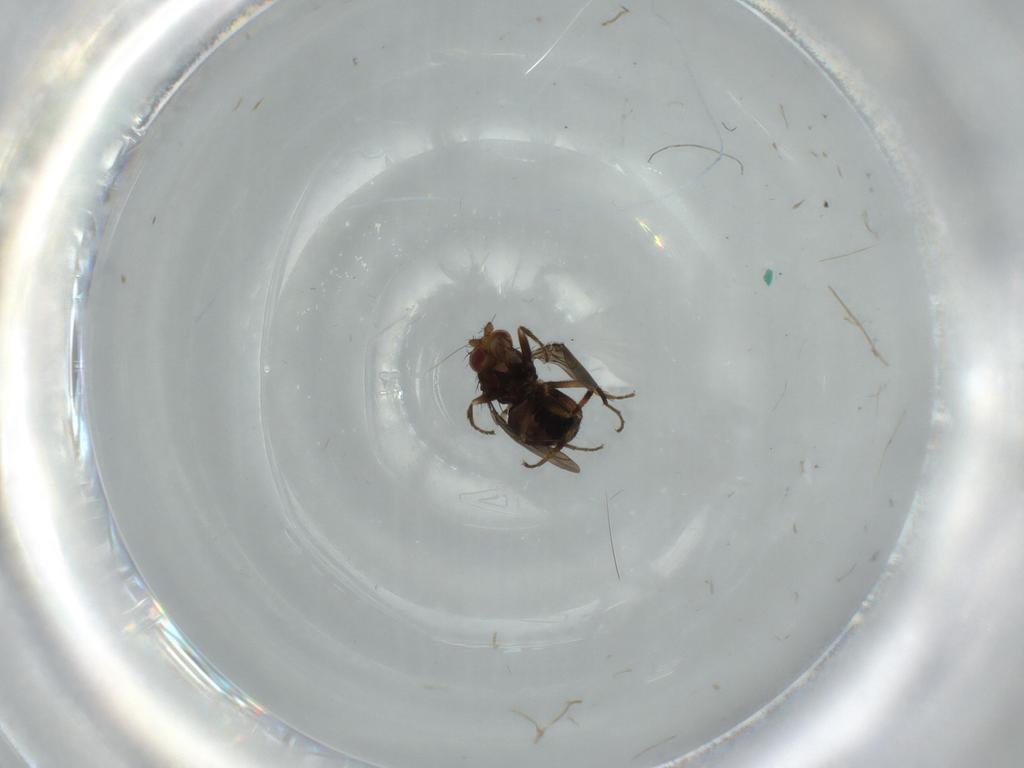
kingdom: Animalia
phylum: Arthropoda
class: Insecta
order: Diptera
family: Sphaeroceridae
